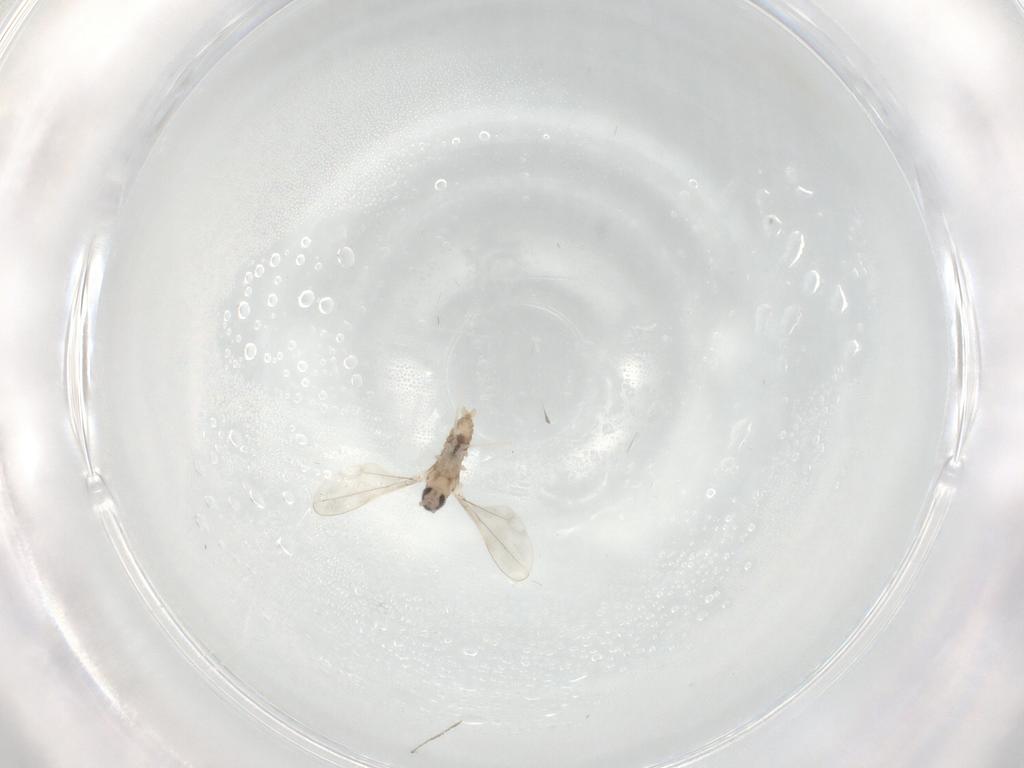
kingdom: Animalia
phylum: Arthropoda
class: Insecta
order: Diptera
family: Cecidomyiidae
